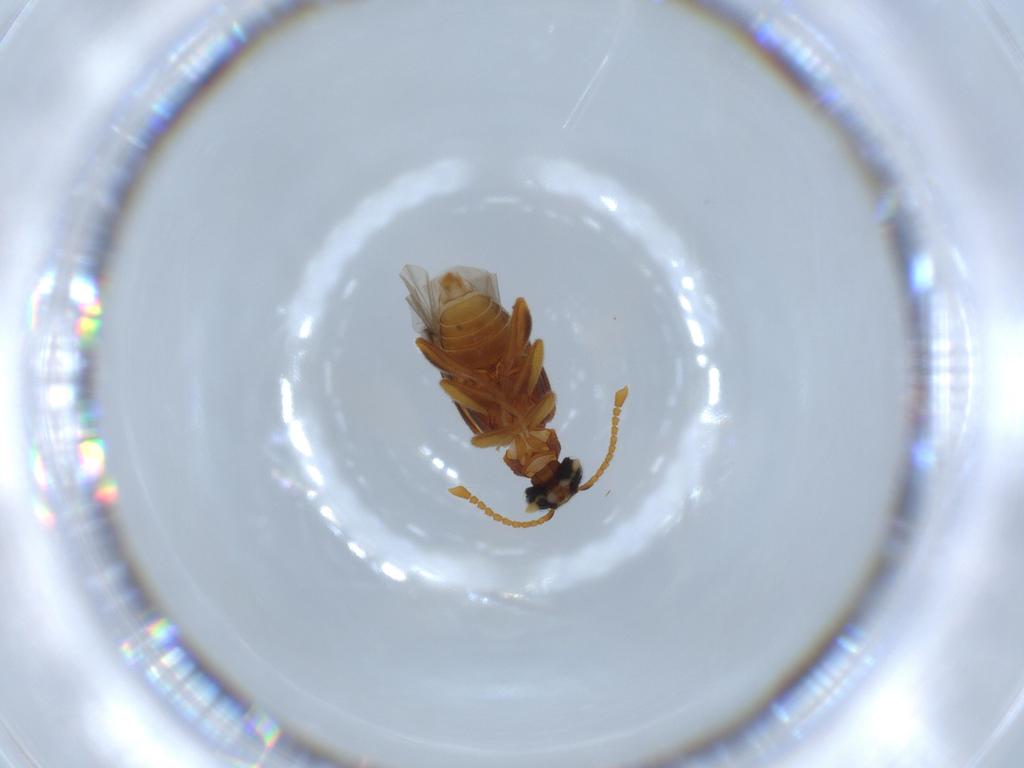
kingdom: Animalia
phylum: Arthropoda
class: Insecta
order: Coleoptera
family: Aderidae
